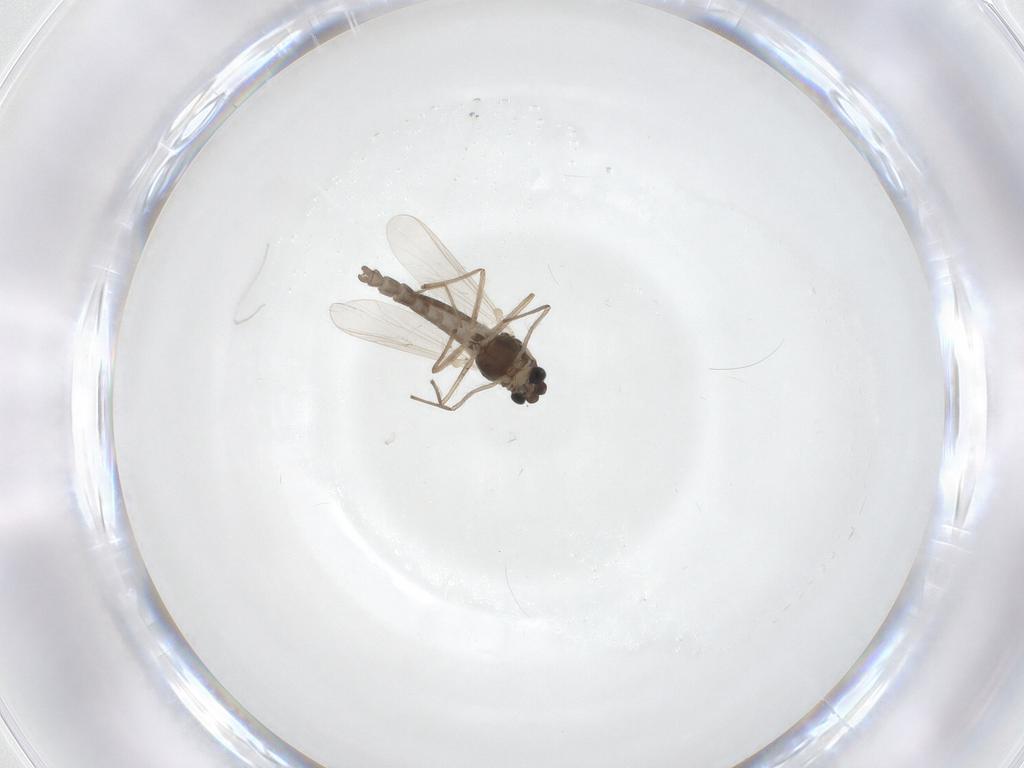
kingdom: Animalia
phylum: Arthropoda
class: Insecta
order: Diptera
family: Chironomidae
